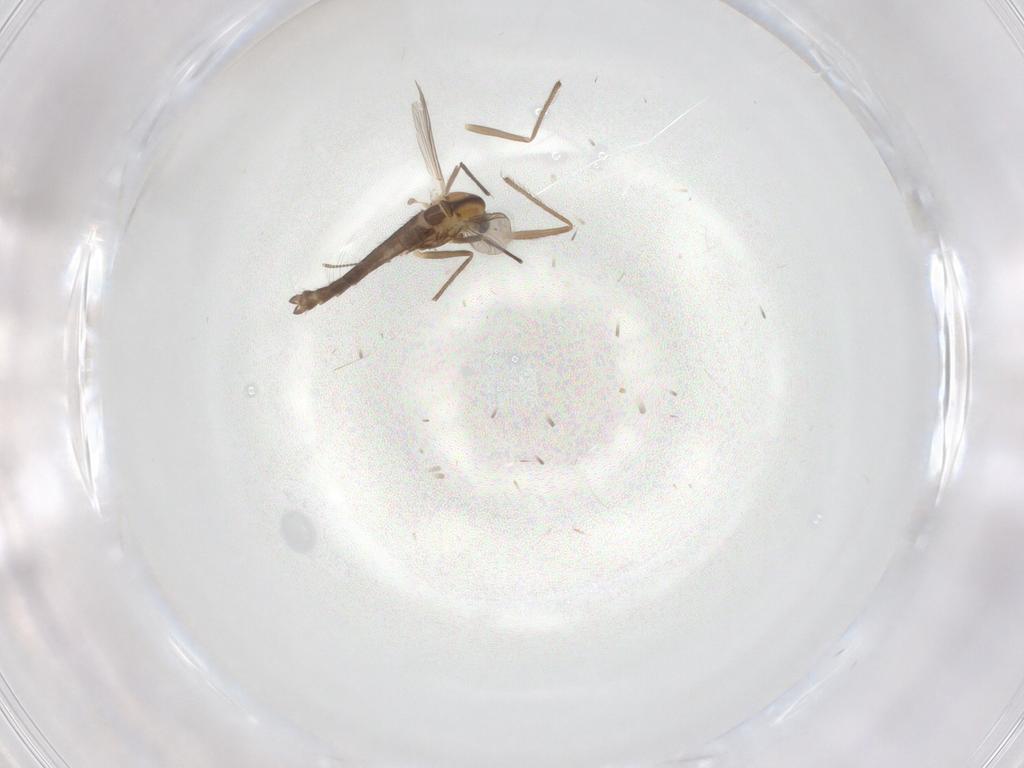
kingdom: Animalia
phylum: Arthropoda
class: Insecta
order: Diptera
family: Chironomidae
